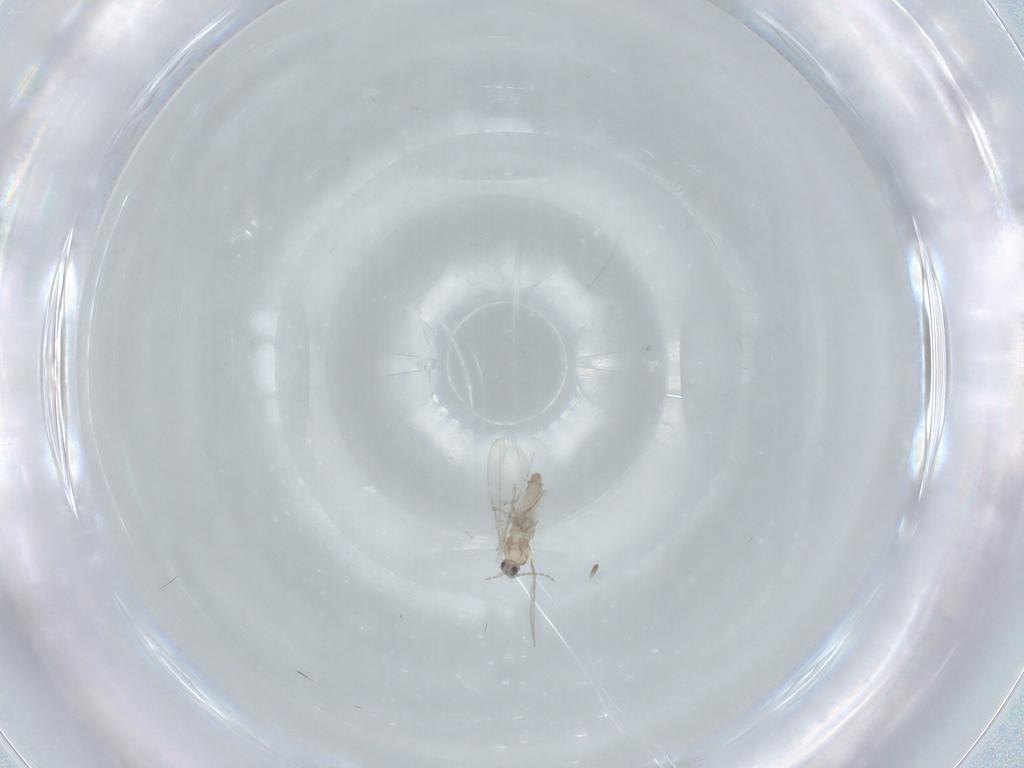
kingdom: Animalia
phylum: Arthropoda
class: Insecta
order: Diptera
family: Cecidomyiidae
